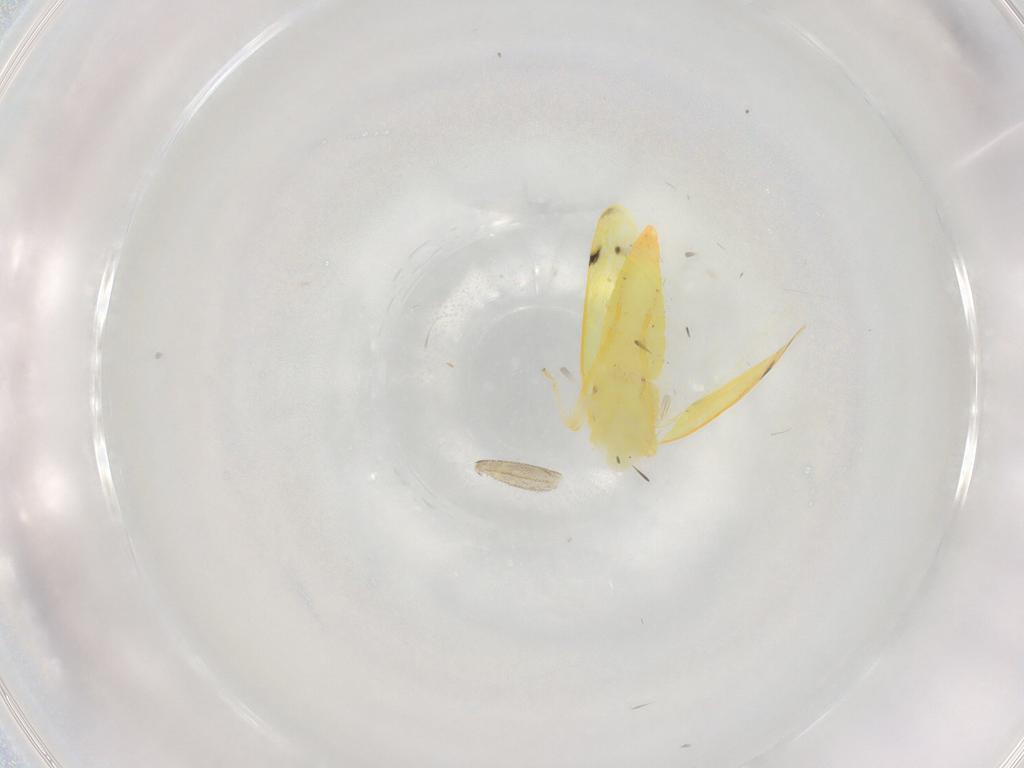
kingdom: Animalia
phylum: Arthropoda
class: Insecta
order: Hemiptera
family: Cicadellidae
